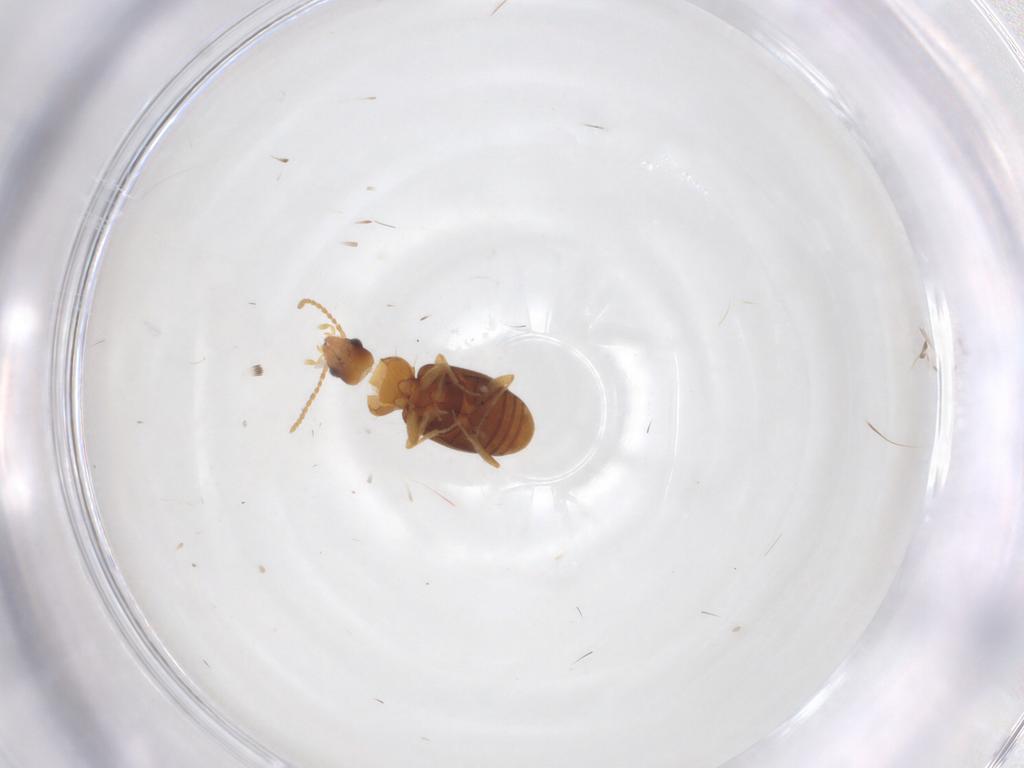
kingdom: Animalia
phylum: Arthropoda
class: Insecta
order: Coleoptera
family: Carabidae
